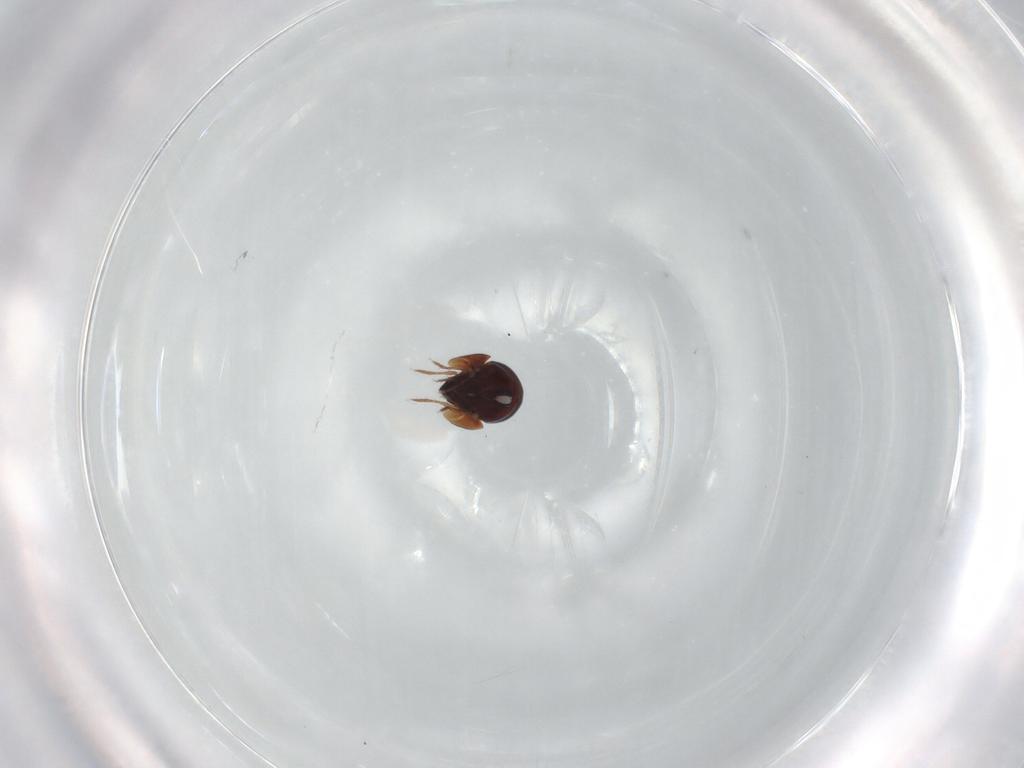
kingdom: Animalia
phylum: Arthropoda
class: Arachnida
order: Sarcoptiformes
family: Ceratozetidae
